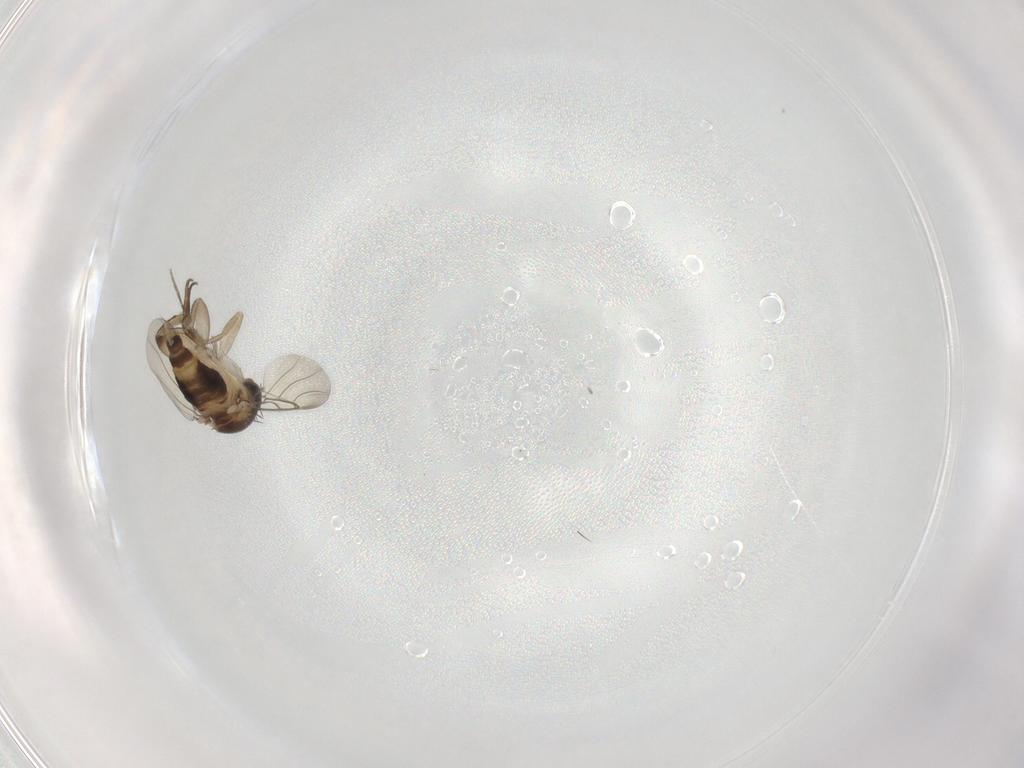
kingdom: Animalia
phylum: Arthropoda
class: Insecta
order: Diptera
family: Phoridae
